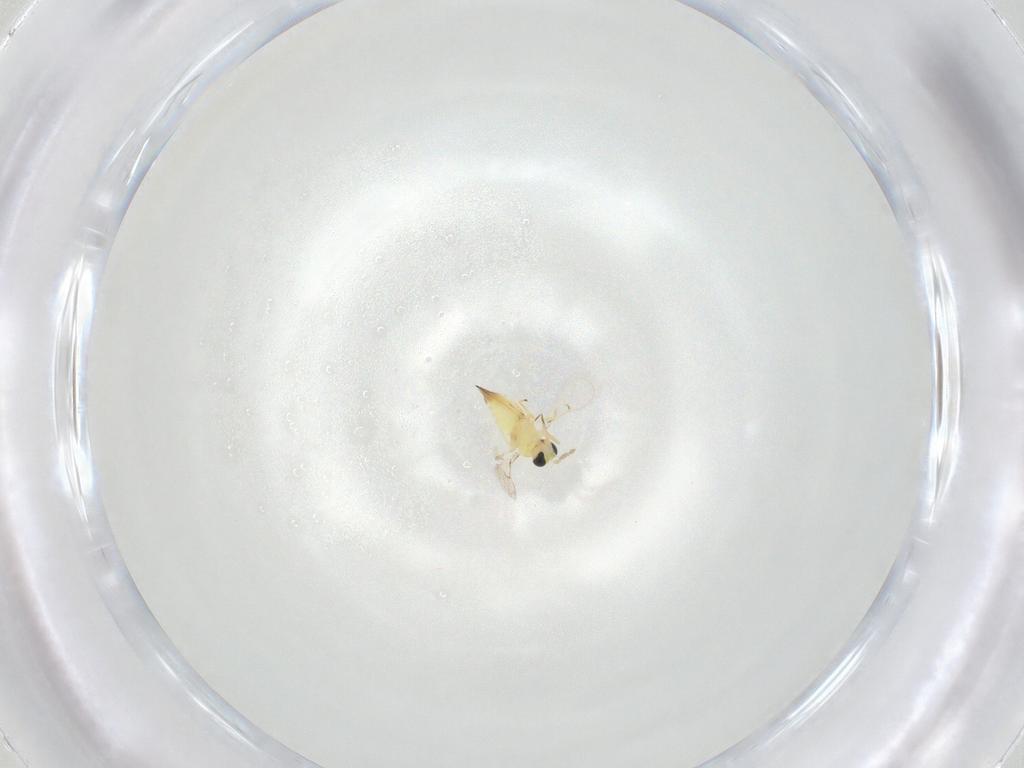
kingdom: Animalia
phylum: Arthropoda
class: Insecta
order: Hymenoptera
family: Trichogrammatidae
